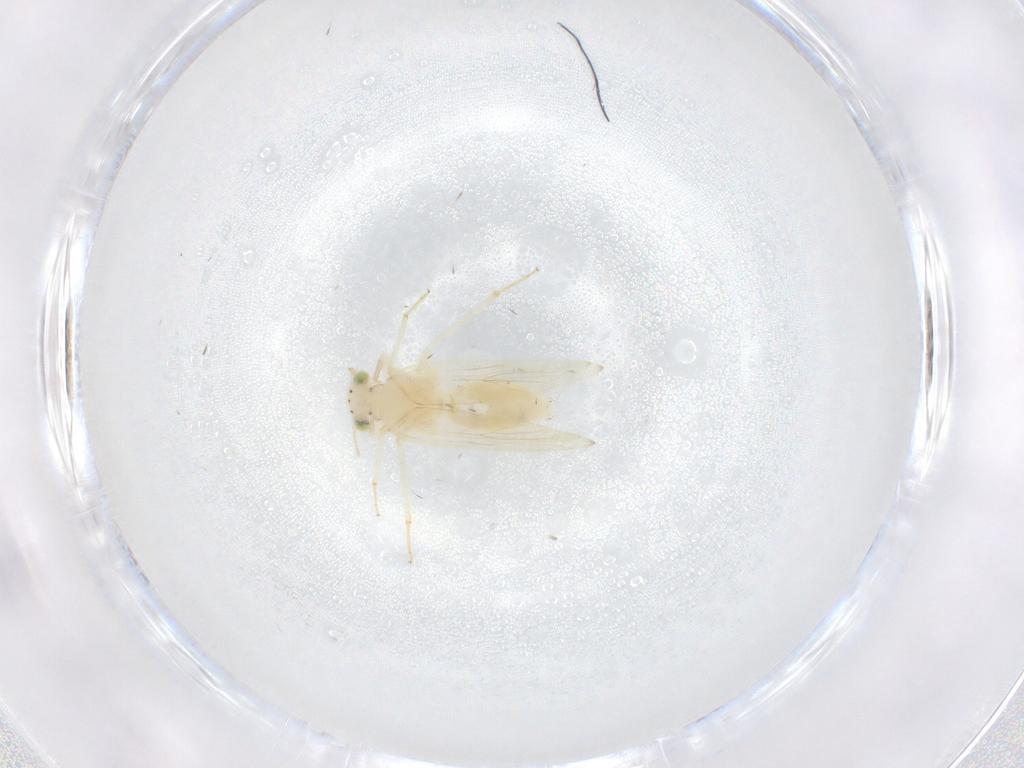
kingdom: Animalia
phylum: Arthropoda
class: Insecta
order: Psocodea
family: Lepidopsocidae
